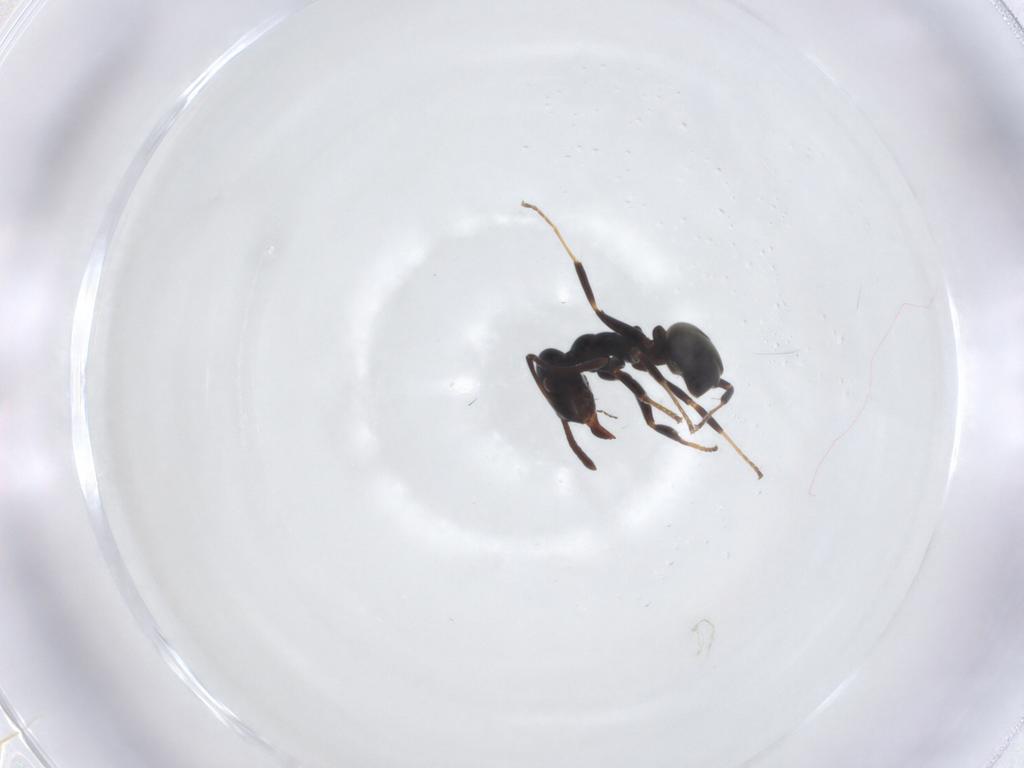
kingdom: Animalia
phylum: Arthropoda
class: Insecta
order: Hymenoptera
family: Formicidae
